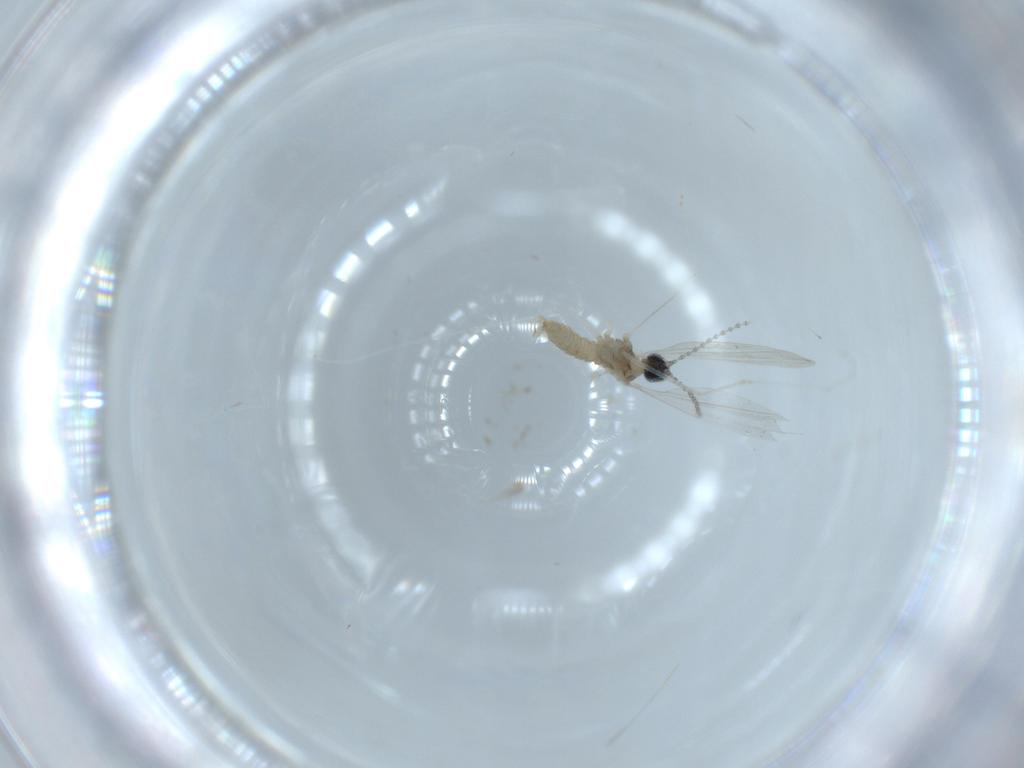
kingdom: Animalia
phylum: Arthropoda
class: Insecta
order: Diptera
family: Cecidomyiidae
